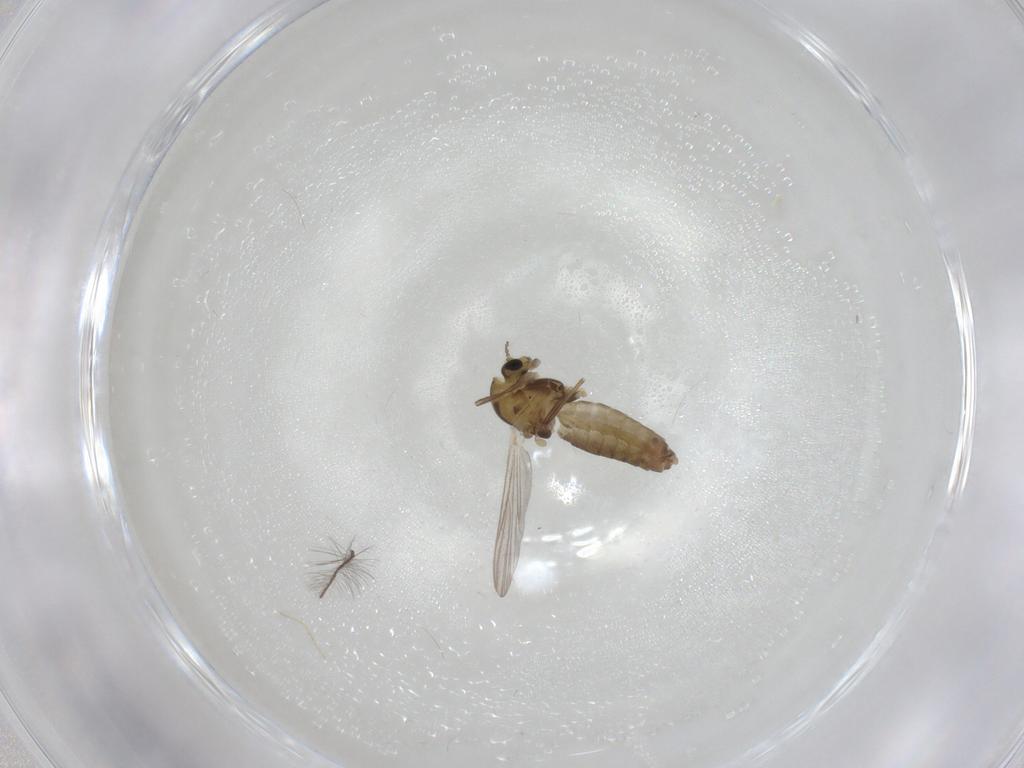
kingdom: Animalia
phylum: Arthropoda
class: Insecta
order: Diptera
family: Chironomidae
